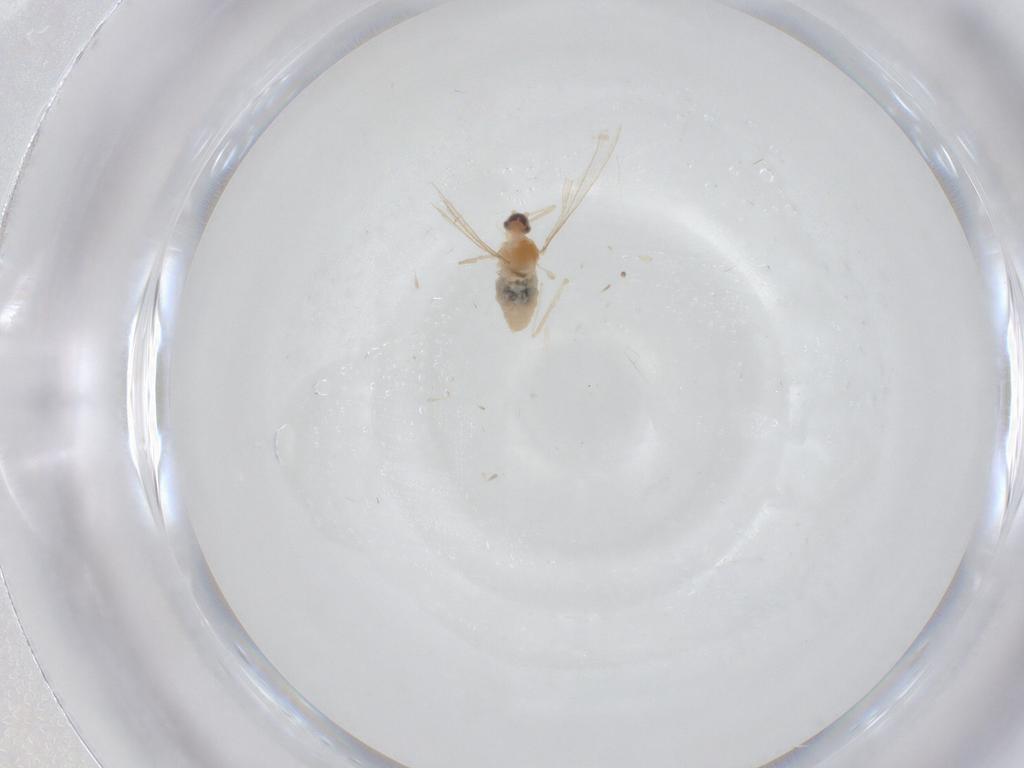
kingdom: Animalia
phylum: Arthropoda
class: Insecta
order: Diptera
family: Cecidomyiidae
